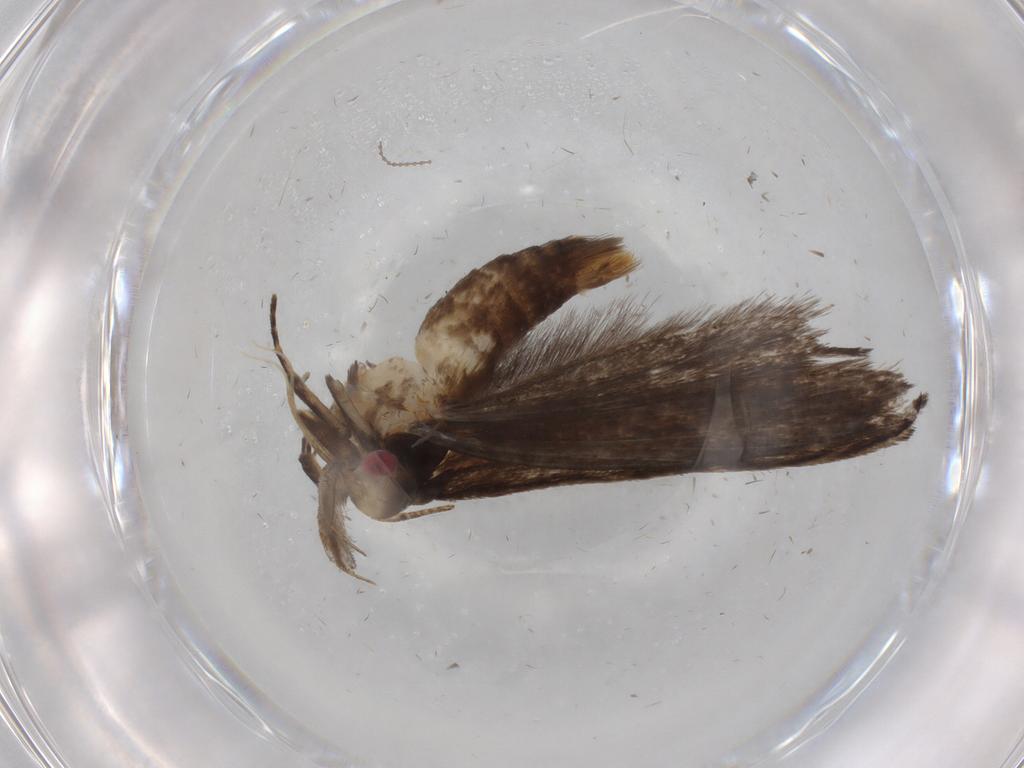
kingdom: Animalia
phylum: Arthropoda
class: Insecta
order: Lepidoptera
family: Gelechiidae
